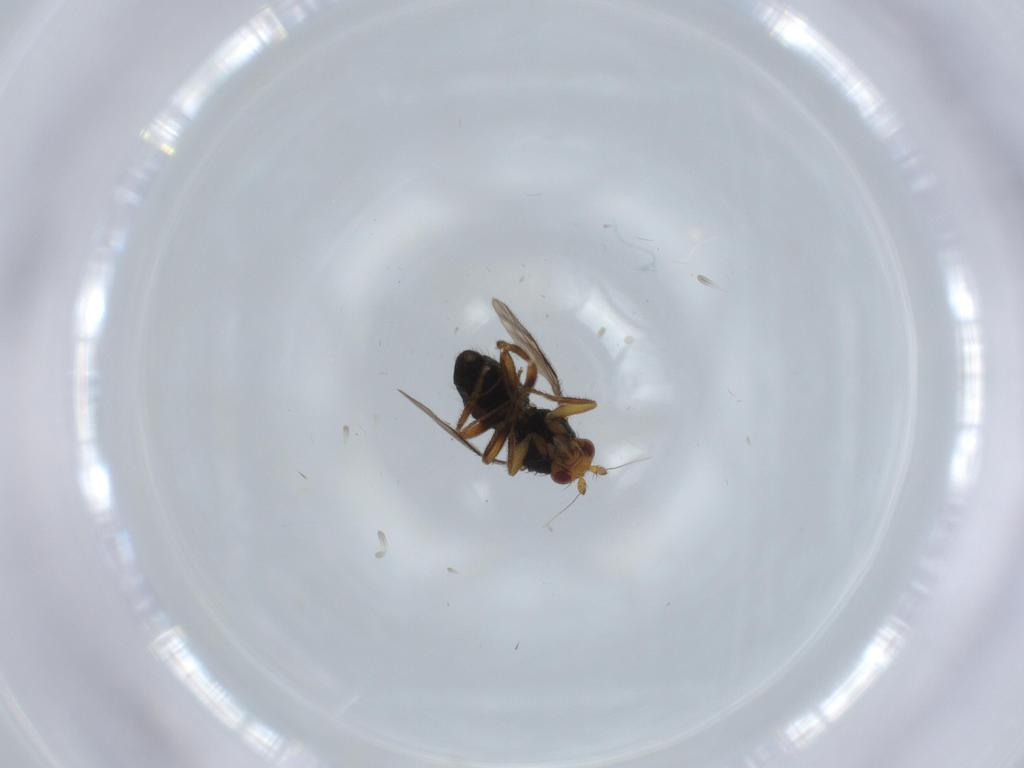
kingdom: Animalia
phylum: Arthropoda
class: Insecta
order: Diptera
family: Sphaeroceridae
